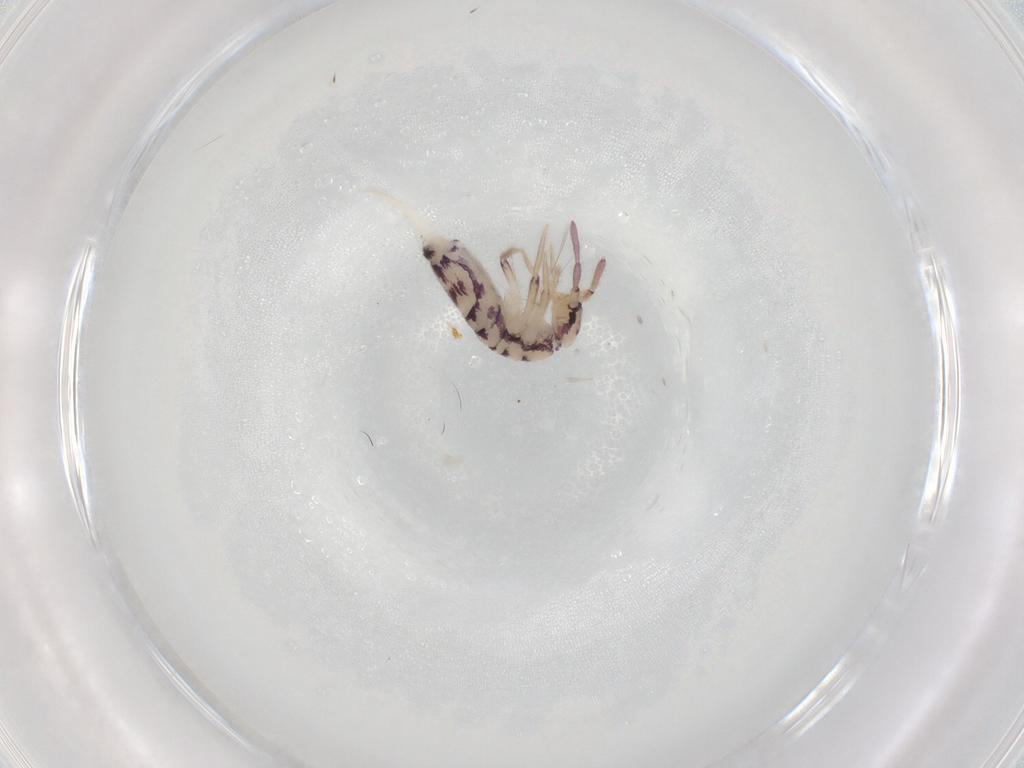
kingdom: Animalia
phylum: Arthropoda
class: Collembola
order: Entomobryomorpha
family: Entomobryidae
